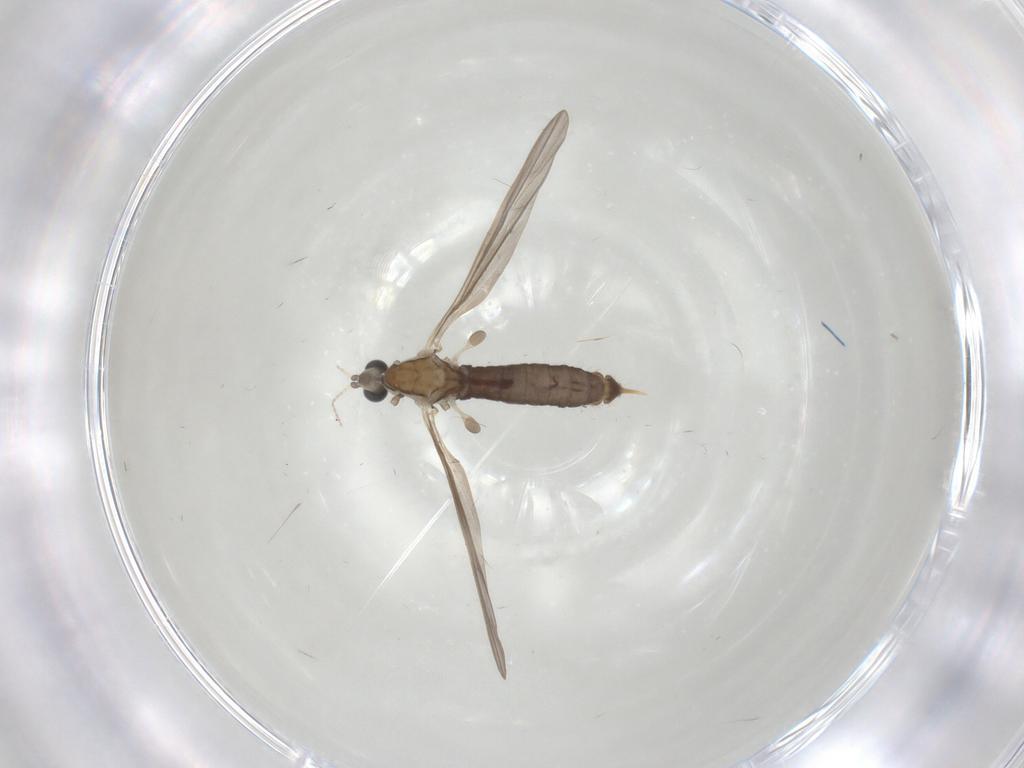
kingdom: Animalia
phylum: Arthropoda
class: Insecta
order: Diptera
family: Limoniidae
